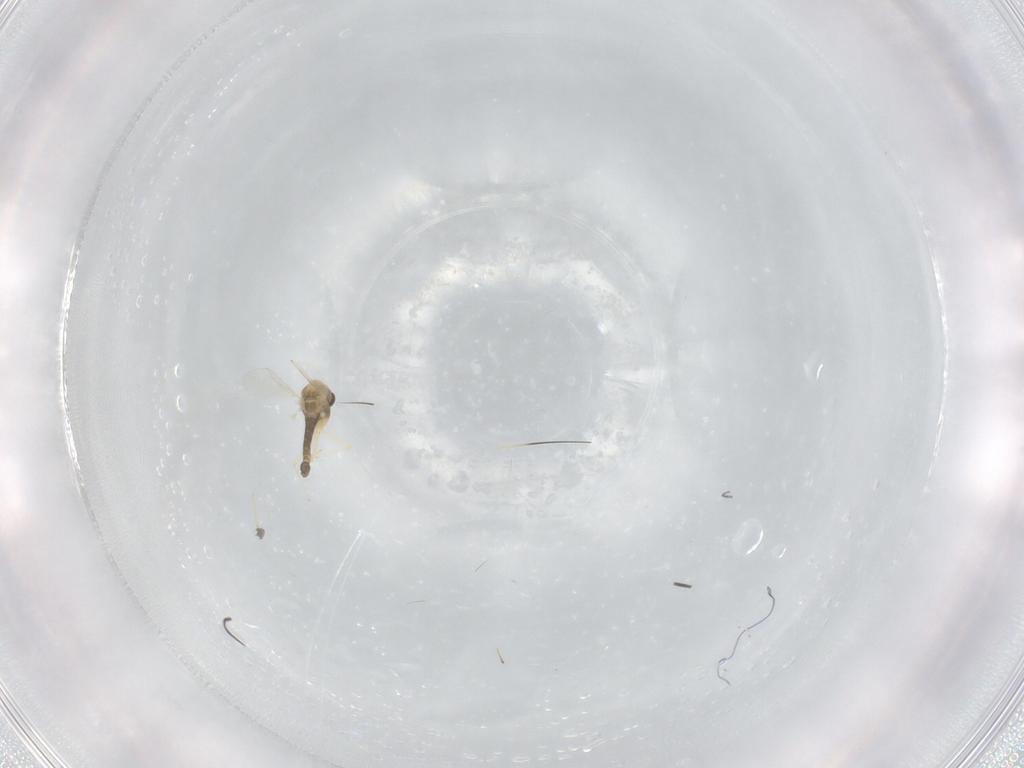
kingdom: Animalia
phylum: Arthropoda
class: Insecta
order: Diptera
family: Chironomidae
